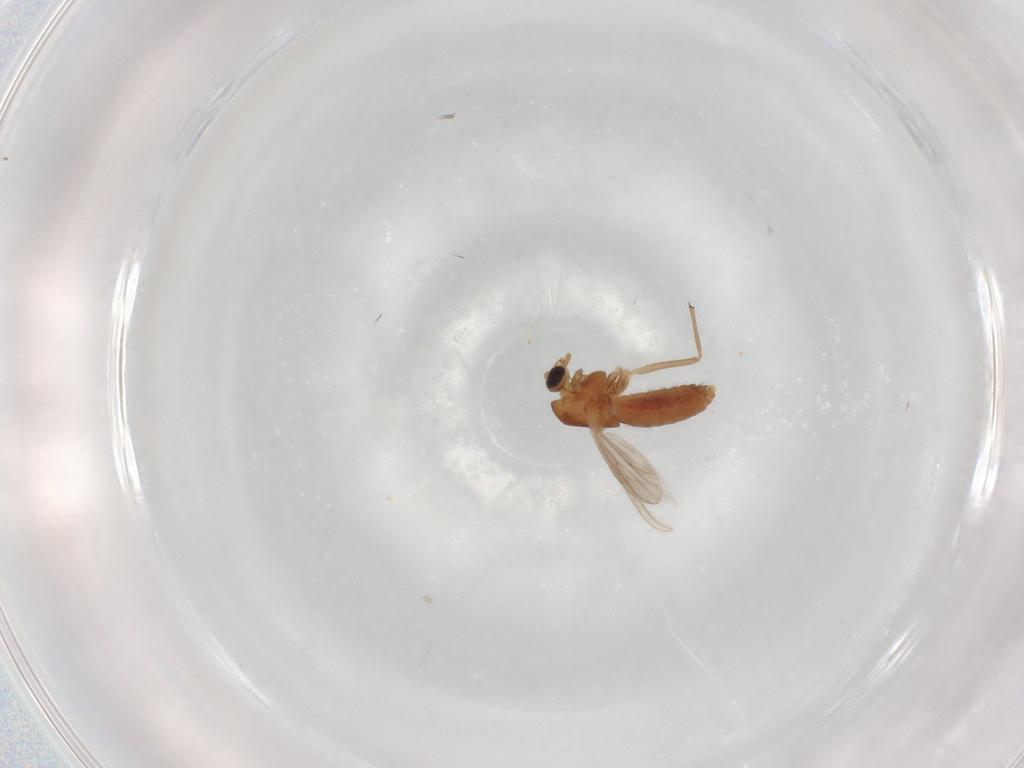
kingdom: Animalia
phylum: Arthropoda
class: Insecta
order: Diptera
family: Chironomidae
